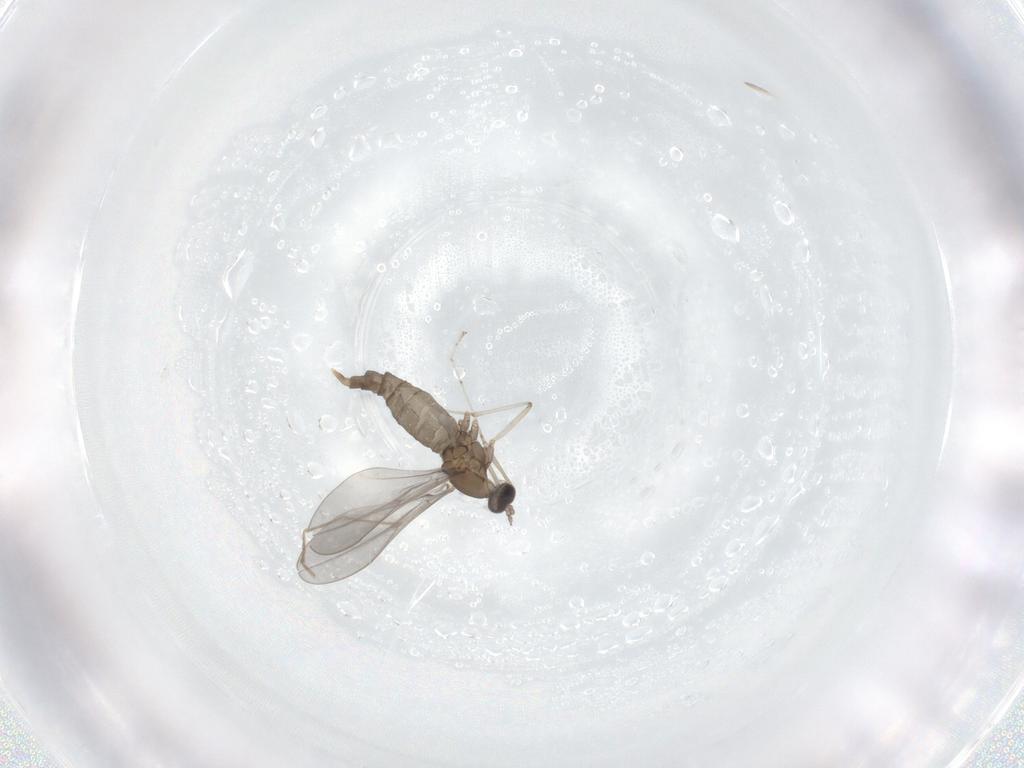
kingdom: Animalia
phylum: Arthropoda
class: Insecta
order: Diptera
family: Cecidomyiidae
